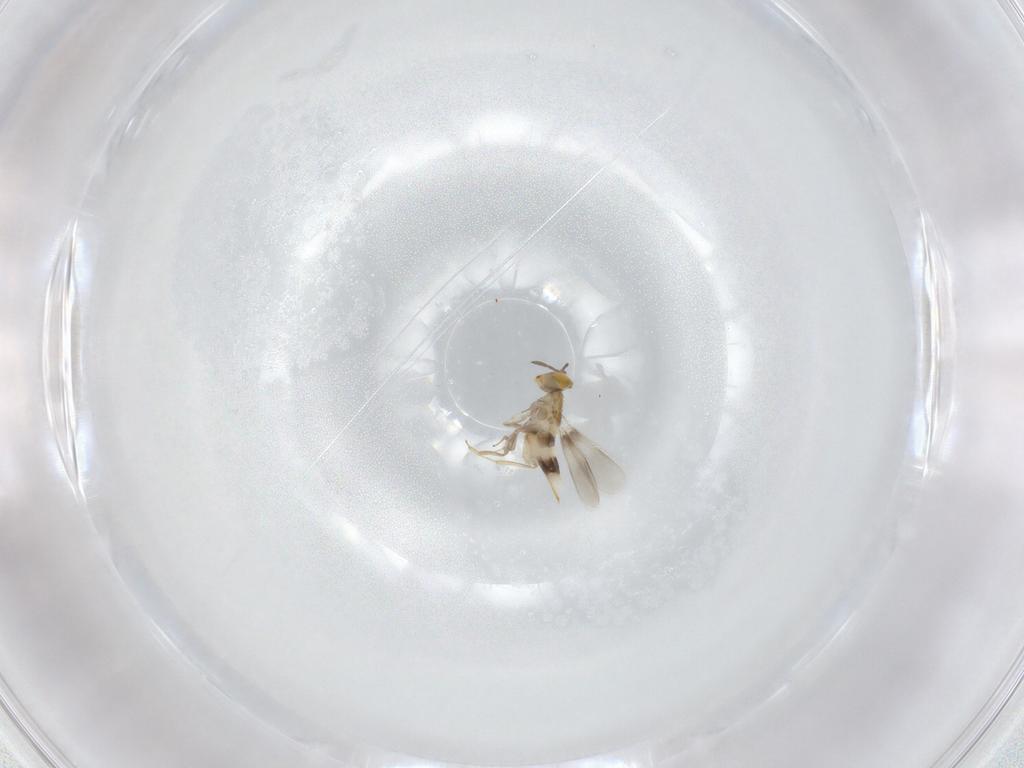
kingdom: Animalia
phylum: Arthropoda
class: Insecta
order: Hymenoptera
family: Aphelinidae
